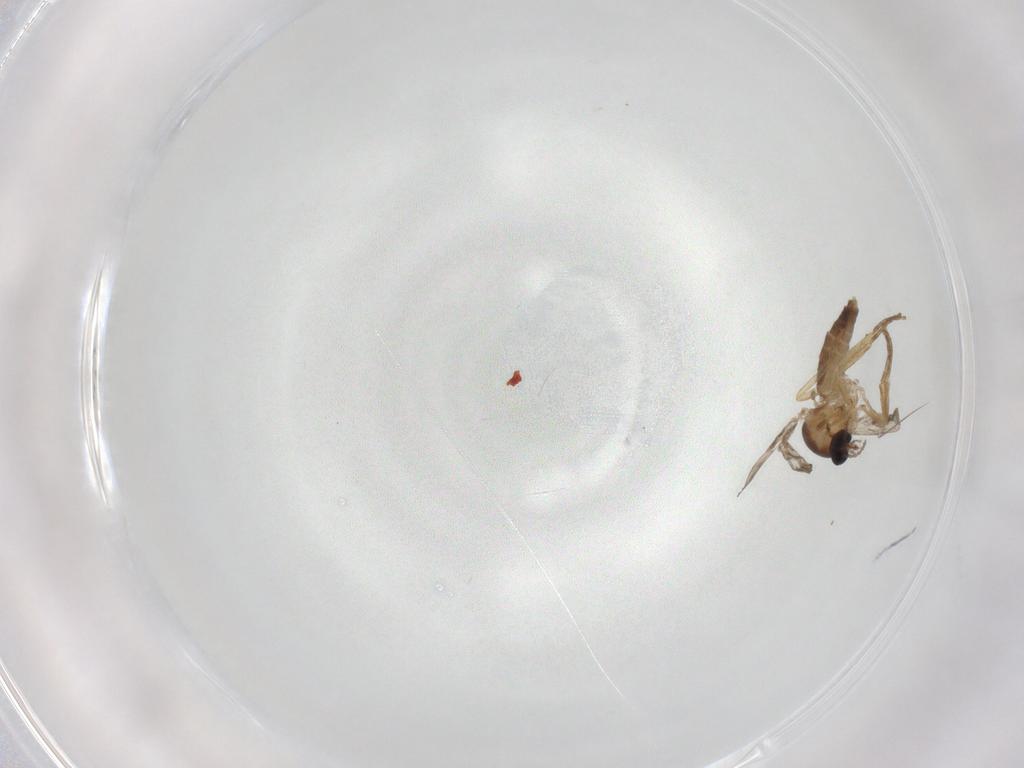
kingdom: Animalia
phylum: Arthropoda
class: Insecta
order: Diptera
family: Ceratopogonidae
